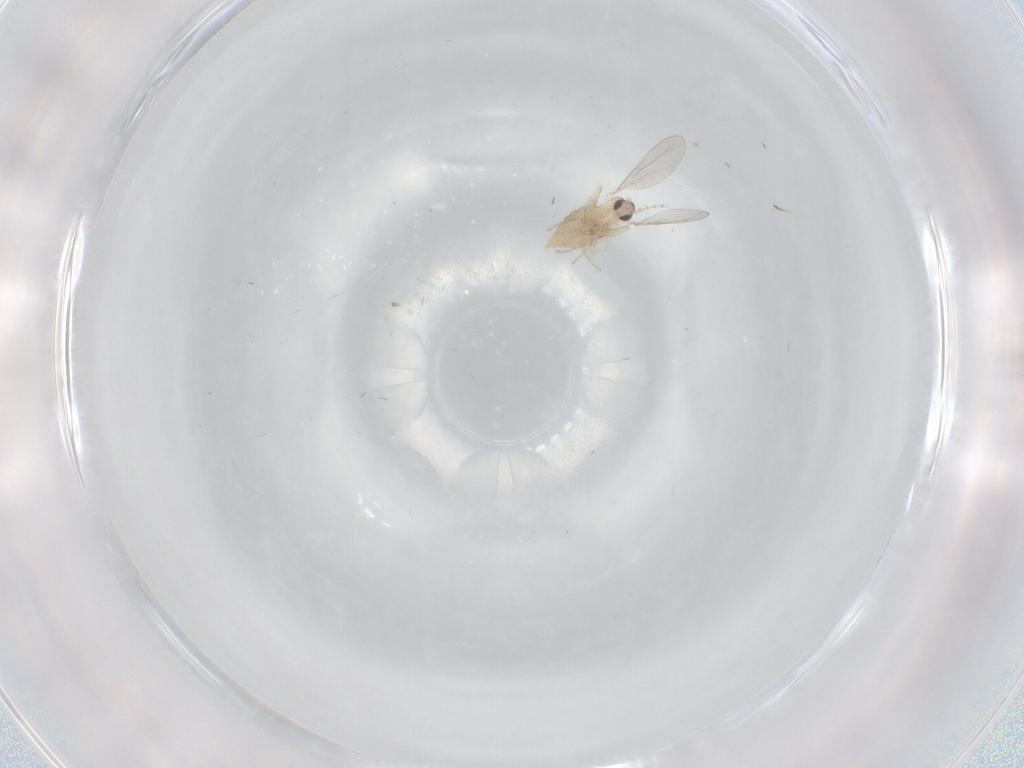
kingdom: Animalia
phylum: Arthropoda
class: Insecta
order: Diptera
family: Cecidomyiidae
